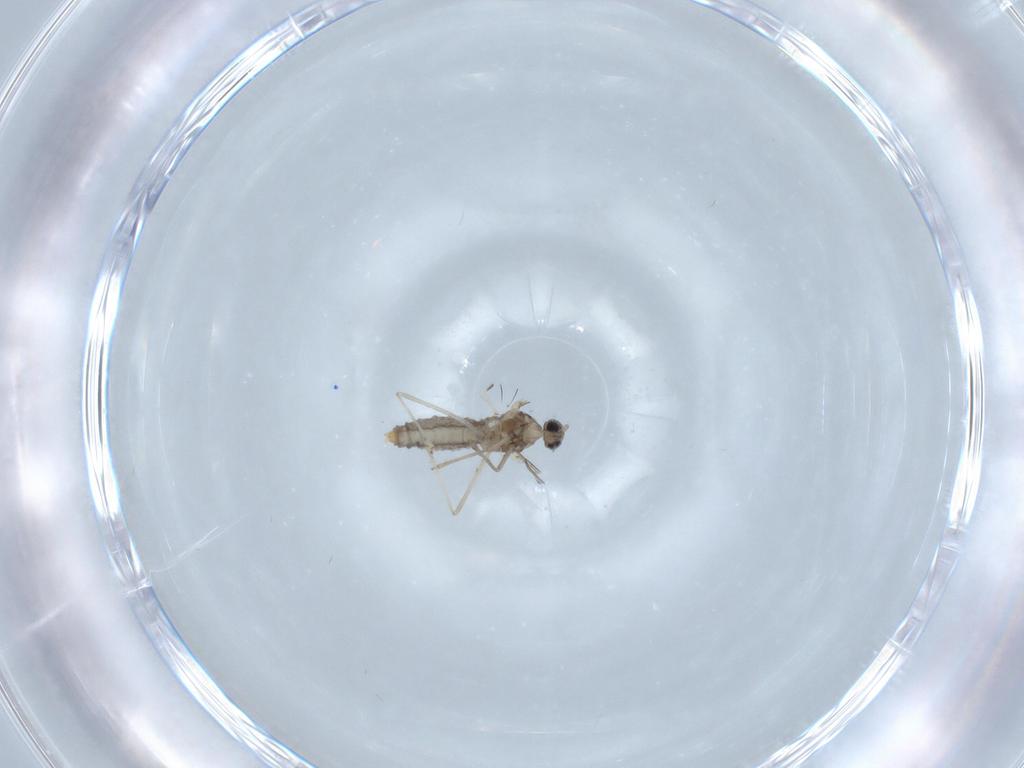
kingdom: Animalia
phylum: Arthropoda
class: Insecta
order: Diptera
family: Cecidomyiidae
